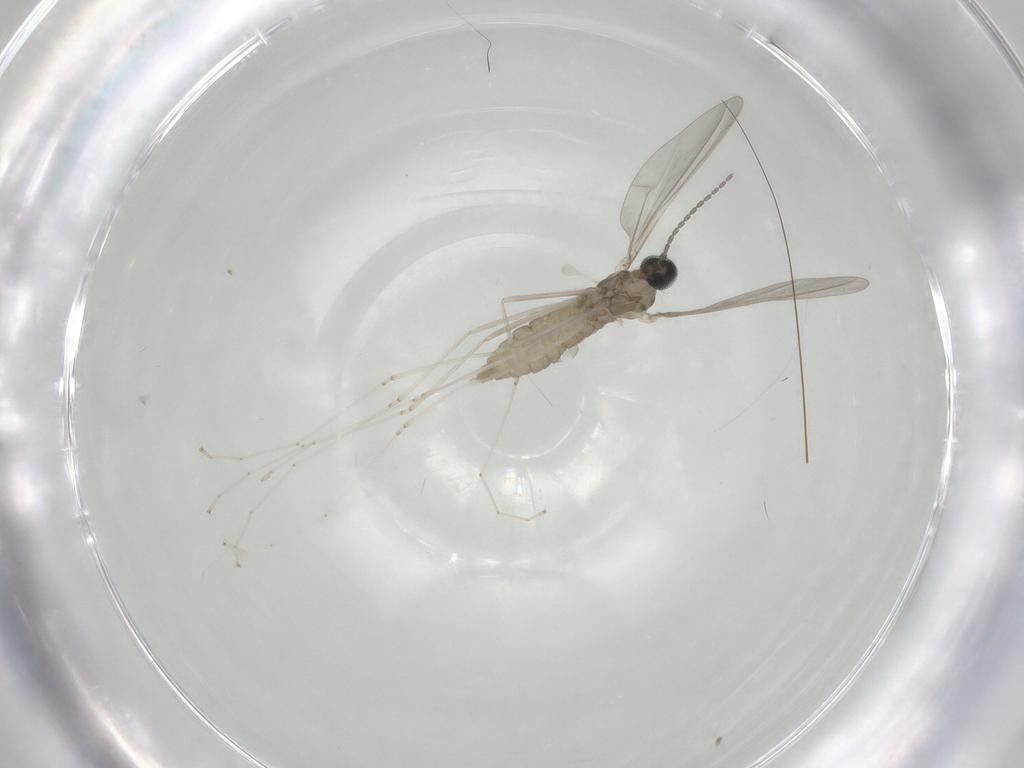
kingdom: Animalia
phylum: Arthropoda
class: Insecta
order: Diptera
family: Cecidomyiidae
